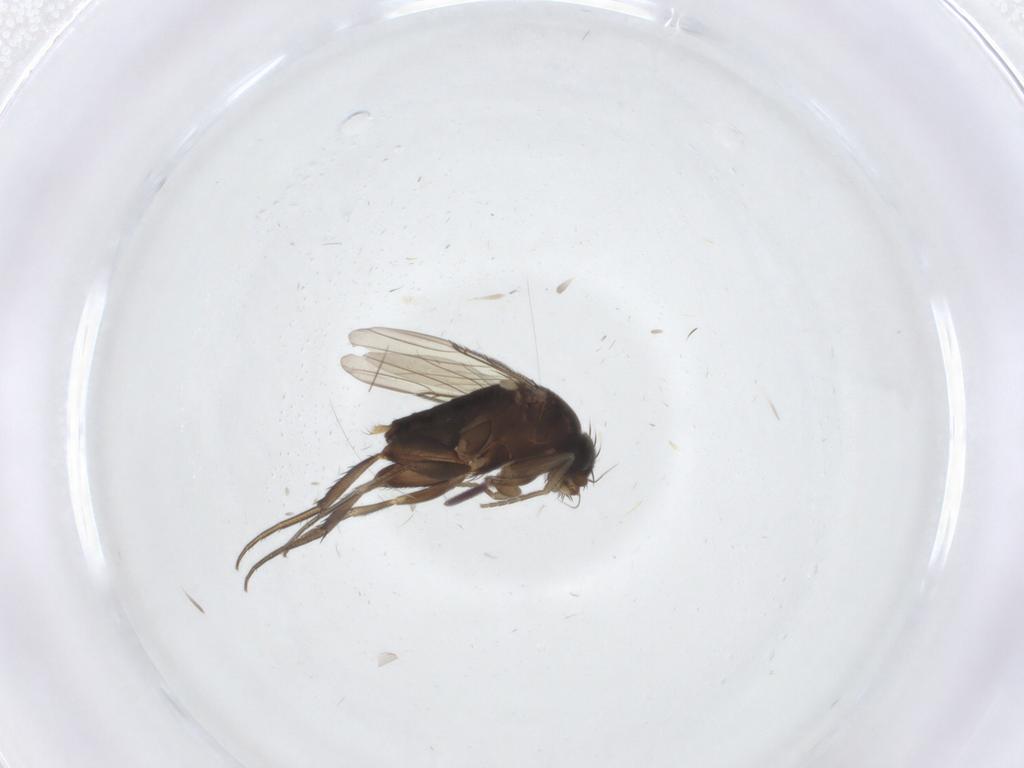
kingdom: Animalia
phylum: Arthropoda
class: Insecta
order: Diptera
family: Phoridae
